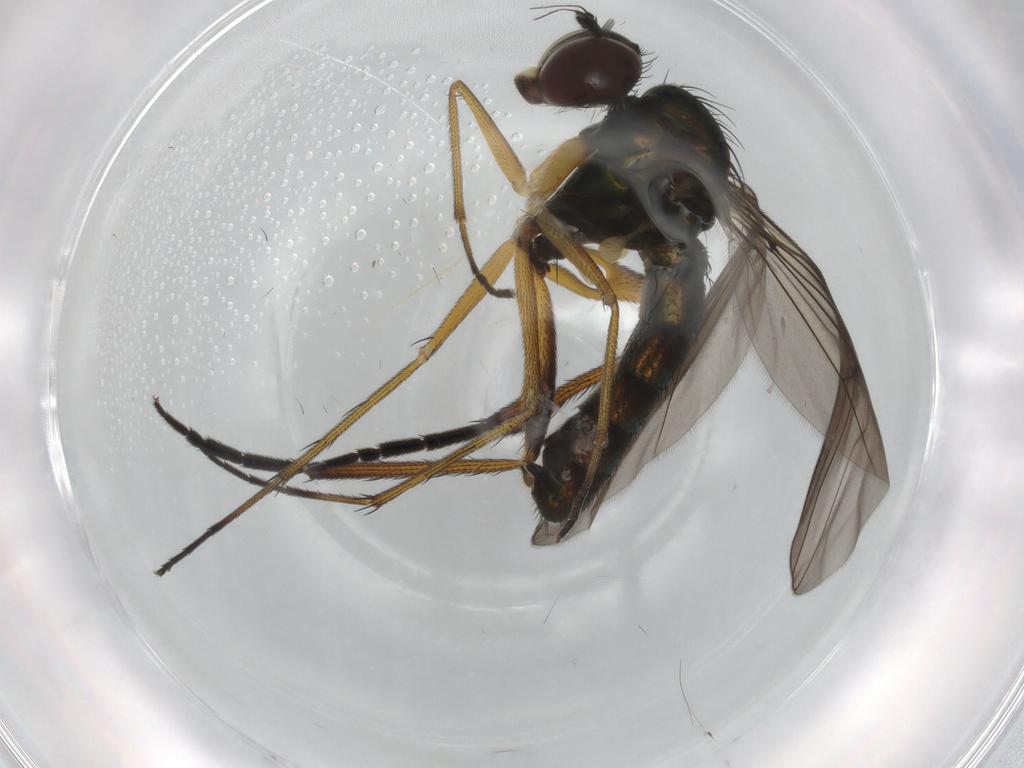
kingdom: Animalia
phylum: Arthropoda
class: Insecta
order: Diptera
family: Dolichopodidae
